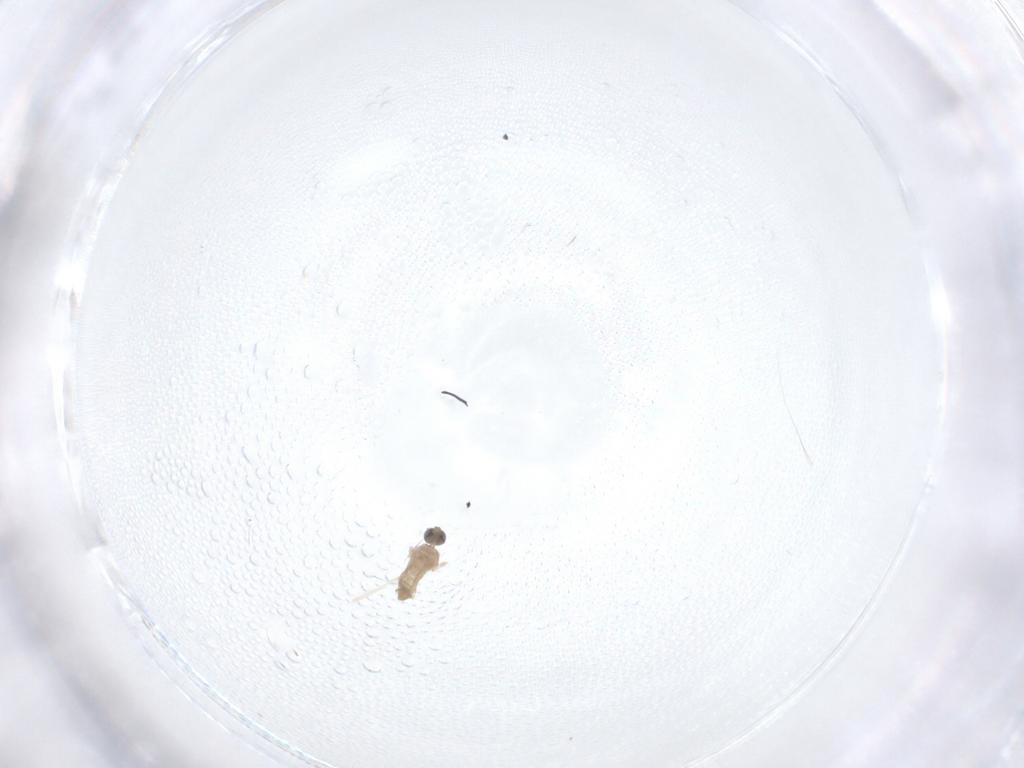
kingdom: Animalia
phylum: Arthropoda
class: Insecta
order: Diptera
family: Cecidomyiidae
